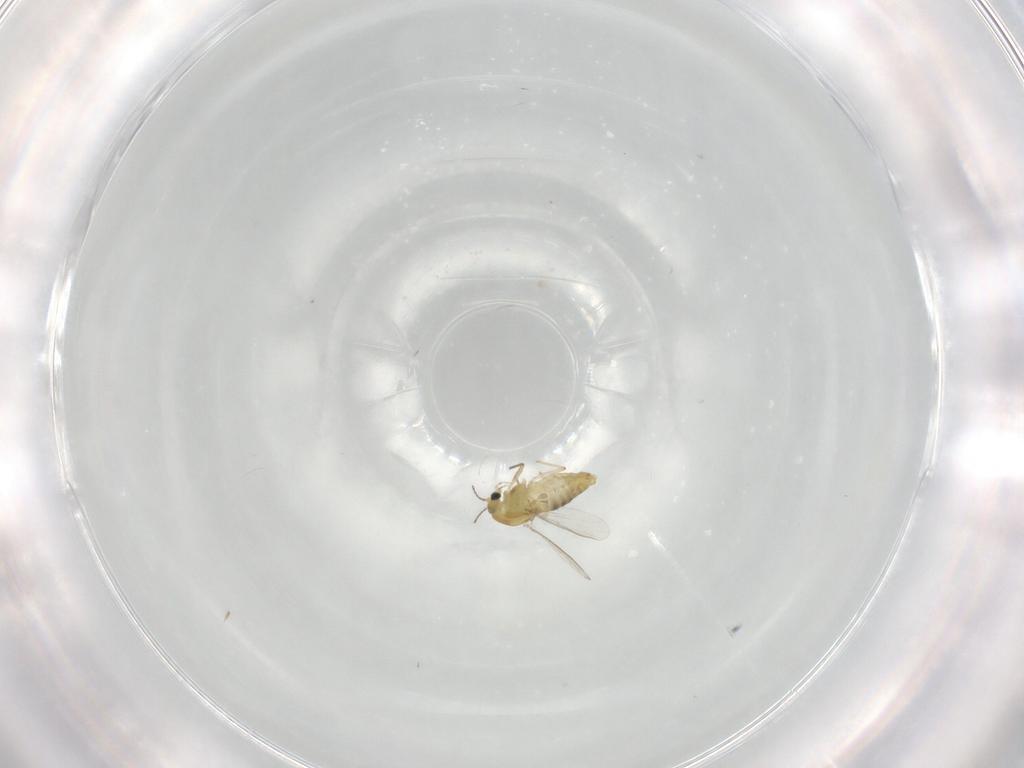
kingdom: Animalia
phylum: Arthropoda
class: Insecta
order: Diptera
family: Chironomidae
